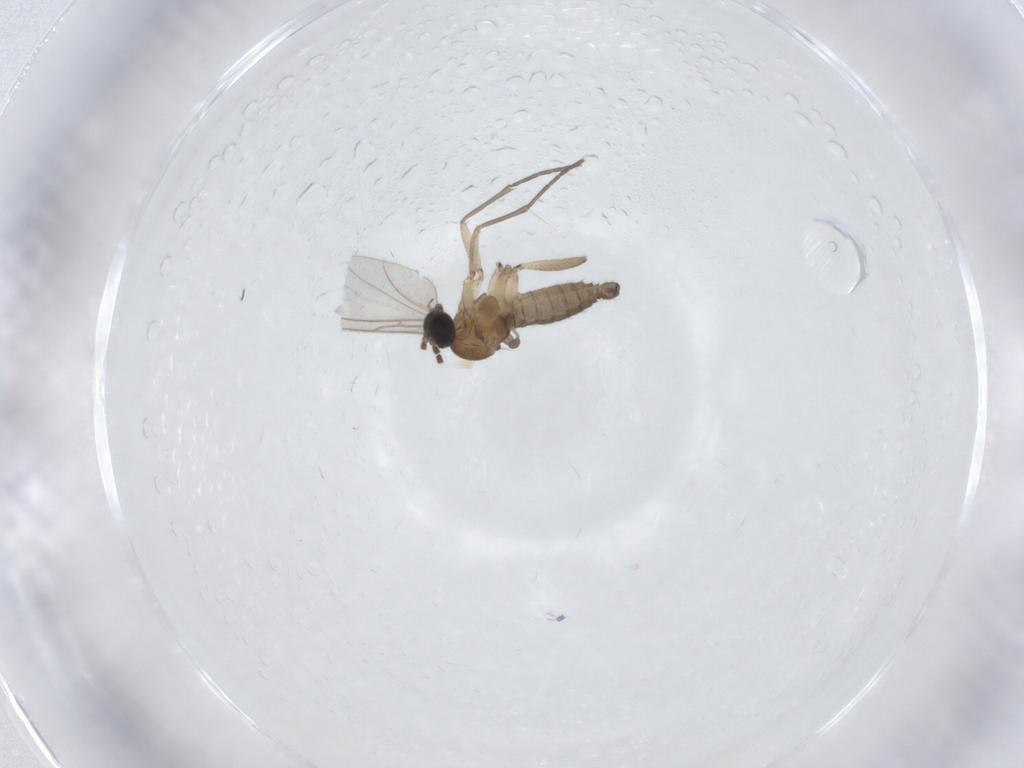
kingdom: Animalia
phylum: Arthropoda
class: Insecta
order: Diptera
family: Sciaridae
